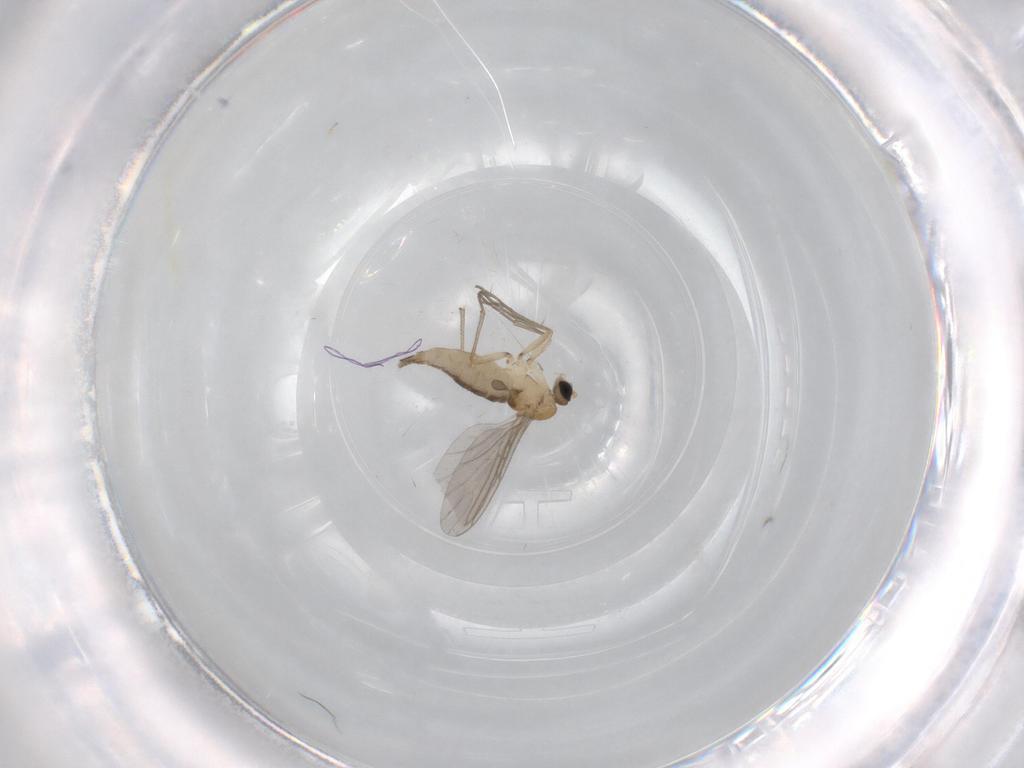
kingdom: Animalia
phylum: Arthropoda
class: Insecta
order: Diptera
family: Sciaridae
